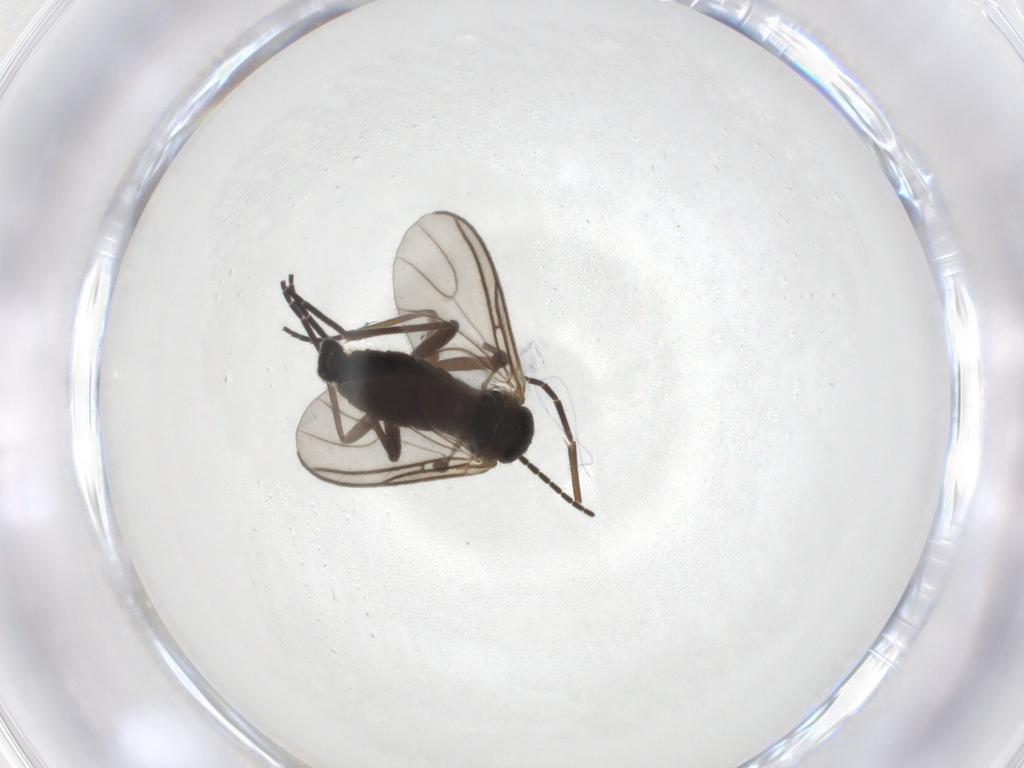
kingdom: Animalia
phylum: Arthropoda
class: Insecta
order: Diptera
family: Sciaridae
